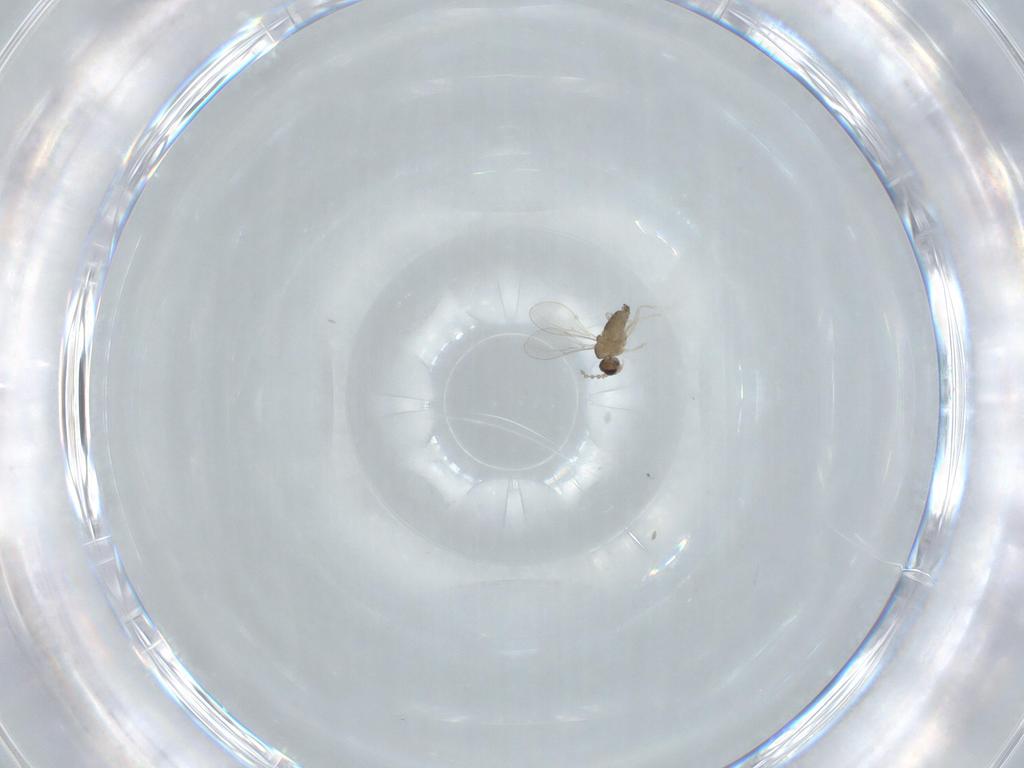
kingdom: Animalia
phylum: Arthropoda
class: Insecta
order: Diptera
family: Cecidomyiidae
